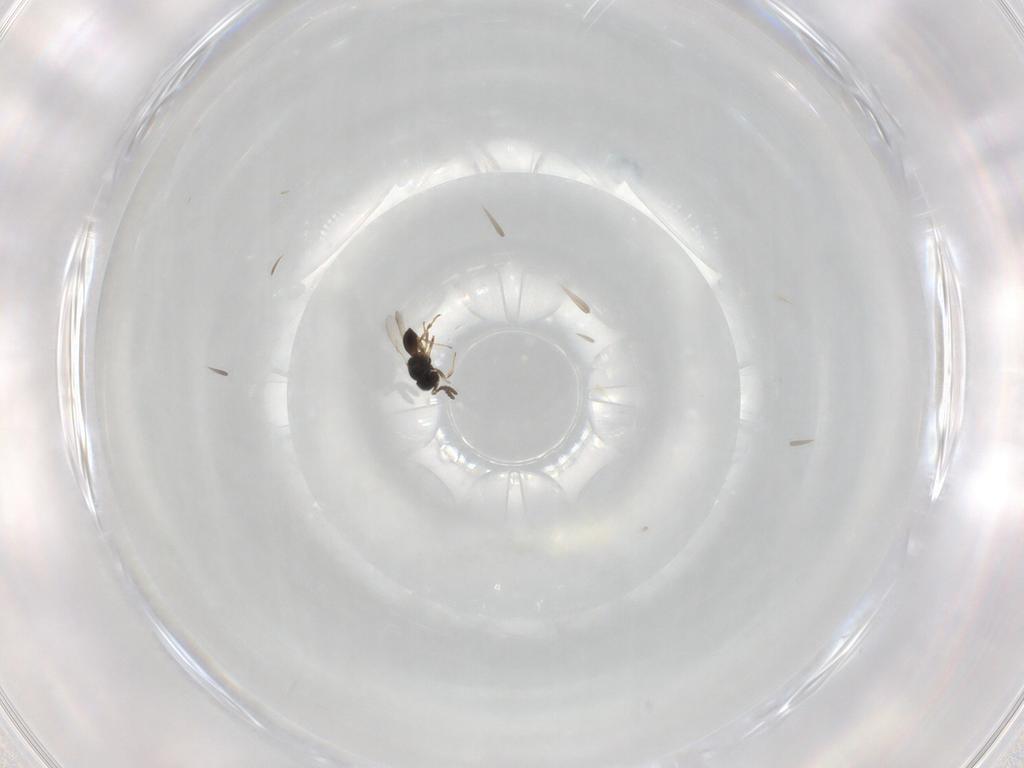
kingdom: Animalia
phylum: Arthropoda
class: Insecta
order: Hymenoptera
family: Scelionidae
